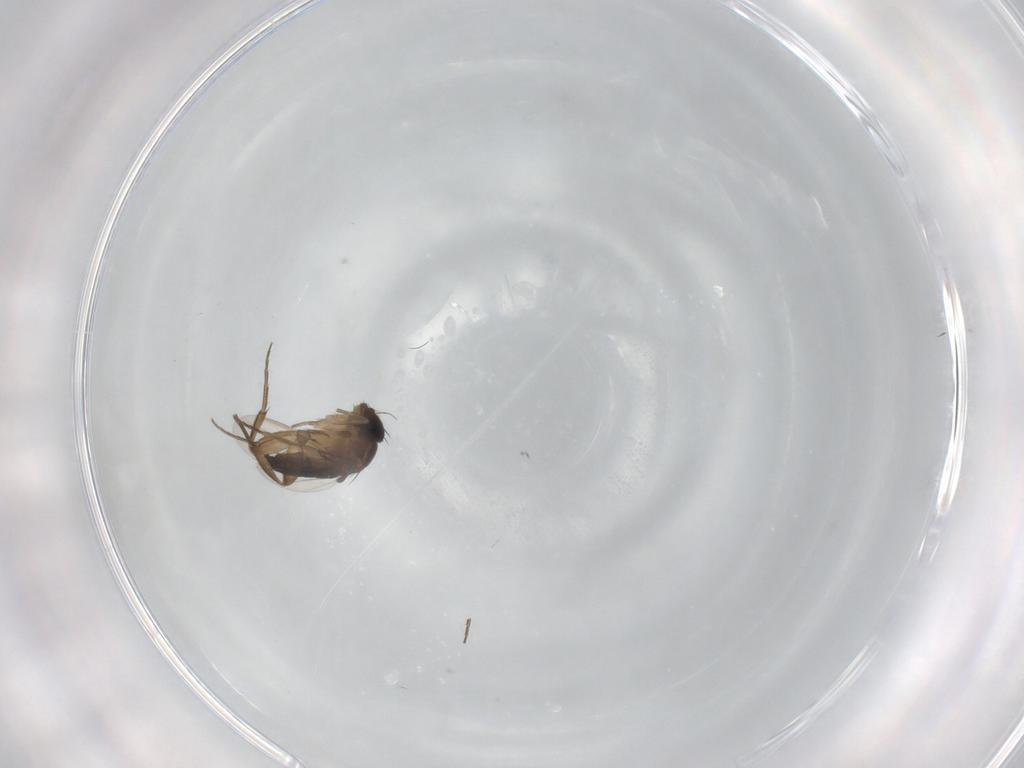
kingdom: Animalia
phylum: Arthropoda
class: Insecta
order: Diptera
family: Phoridae
